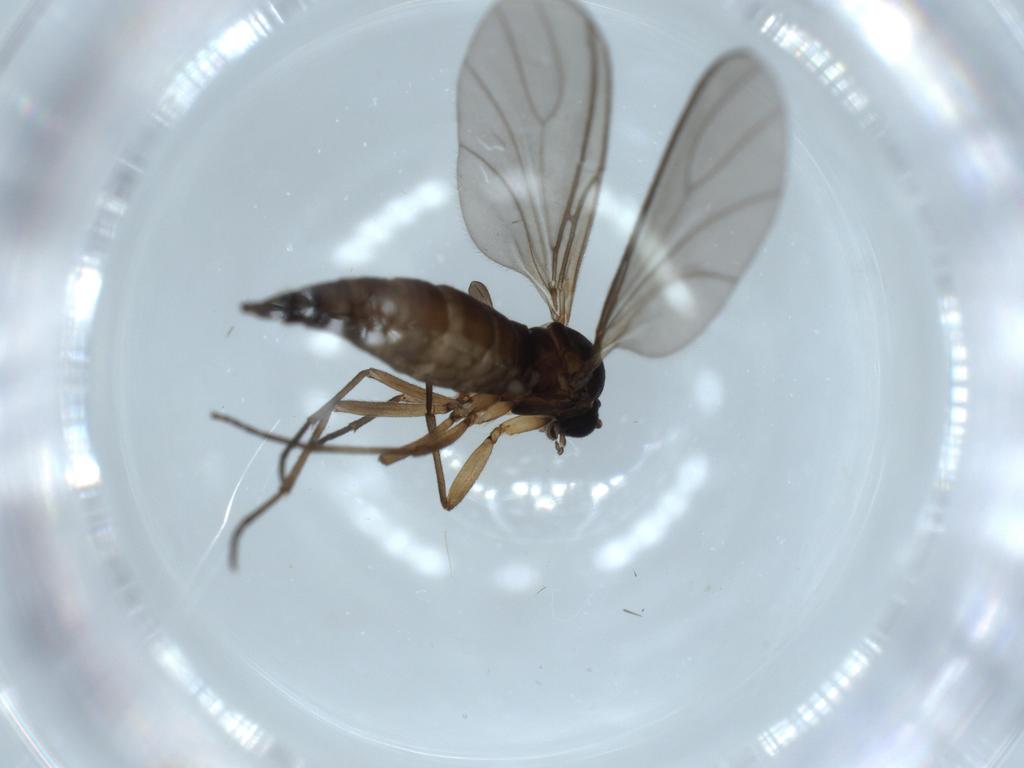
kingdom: Animalia
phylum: Arthropoda
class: Insecta
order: Diptera
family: Sciaridae
